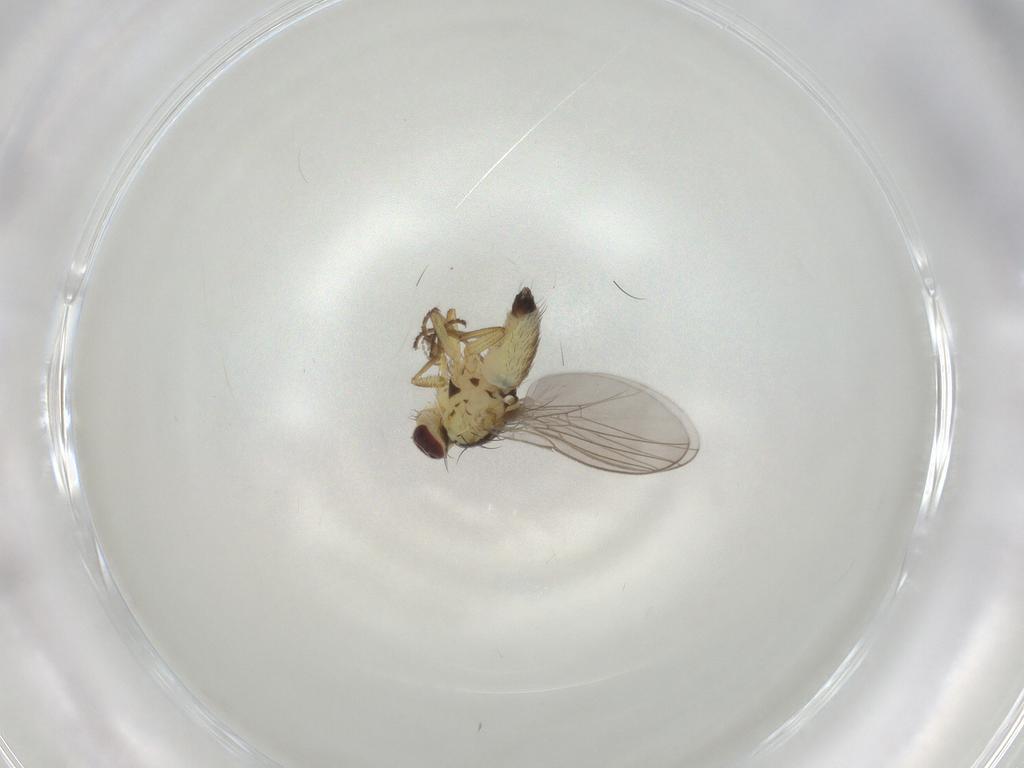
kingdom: Animalia
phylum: Arthropoda
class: Insecta
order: Diptera
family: Agromyzidae
